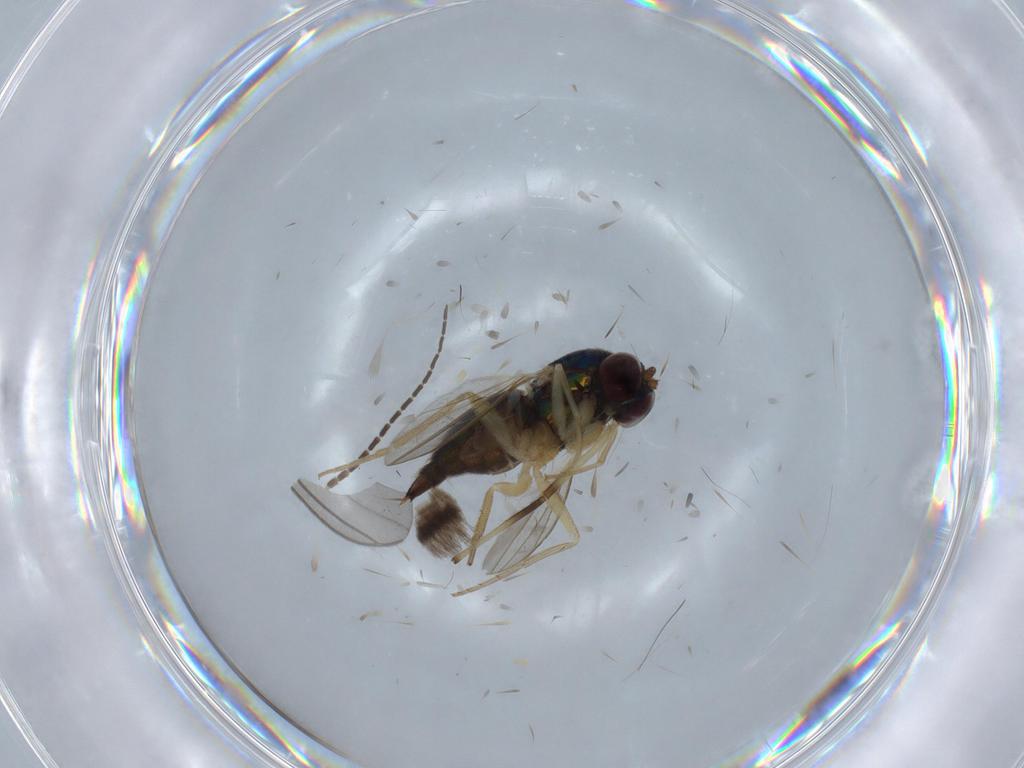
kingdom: Animalia
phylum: Arthropoda
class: Insecta
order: Diptera
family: Dolichopodidae
